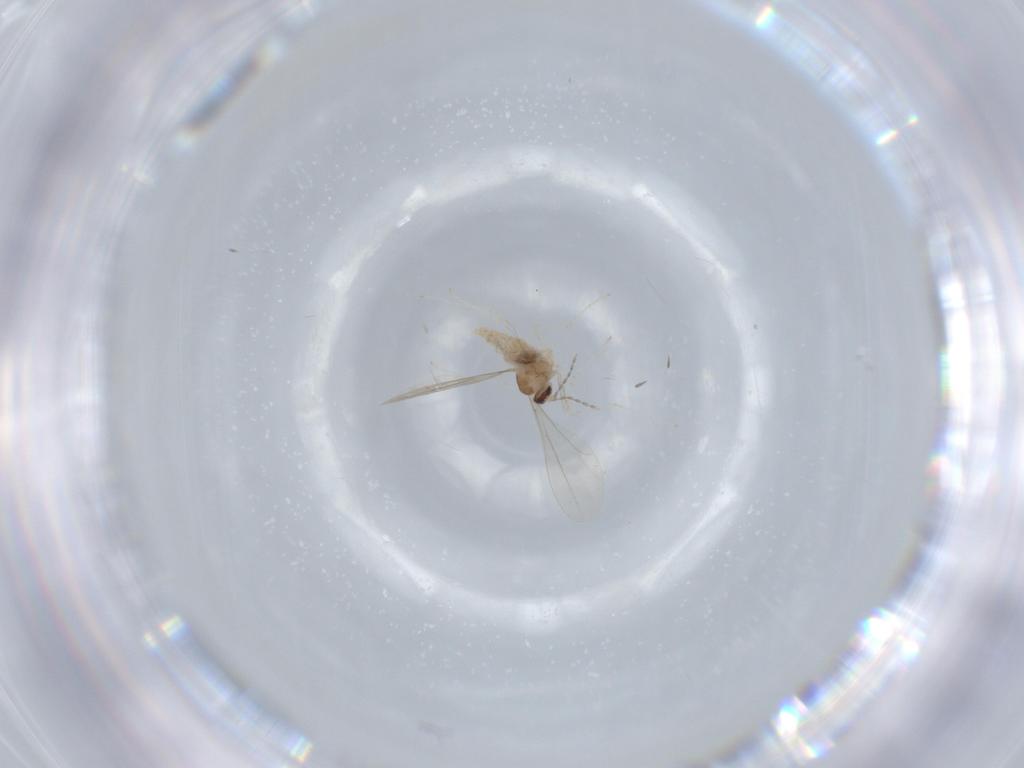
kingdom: Animalia
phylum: Arthropoda
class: Insecta
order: Diptera
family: Cecidomyiidae
